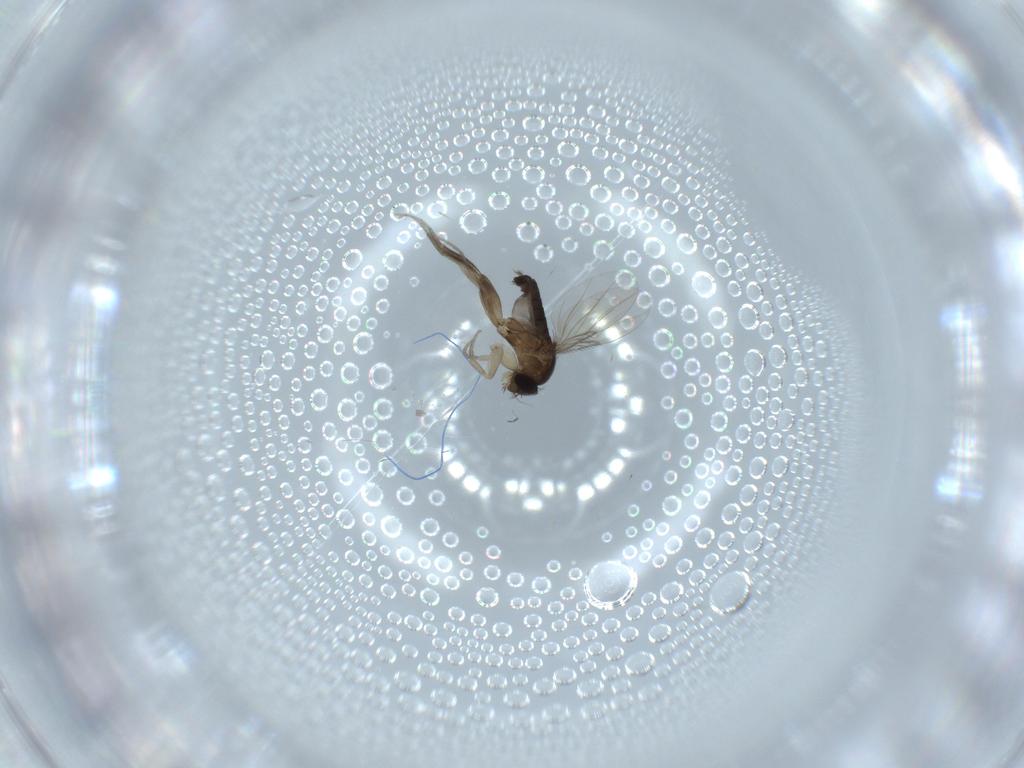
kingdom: Animalia
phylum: Arthropoda
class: Insecta
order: Diptera
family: Phoridae
